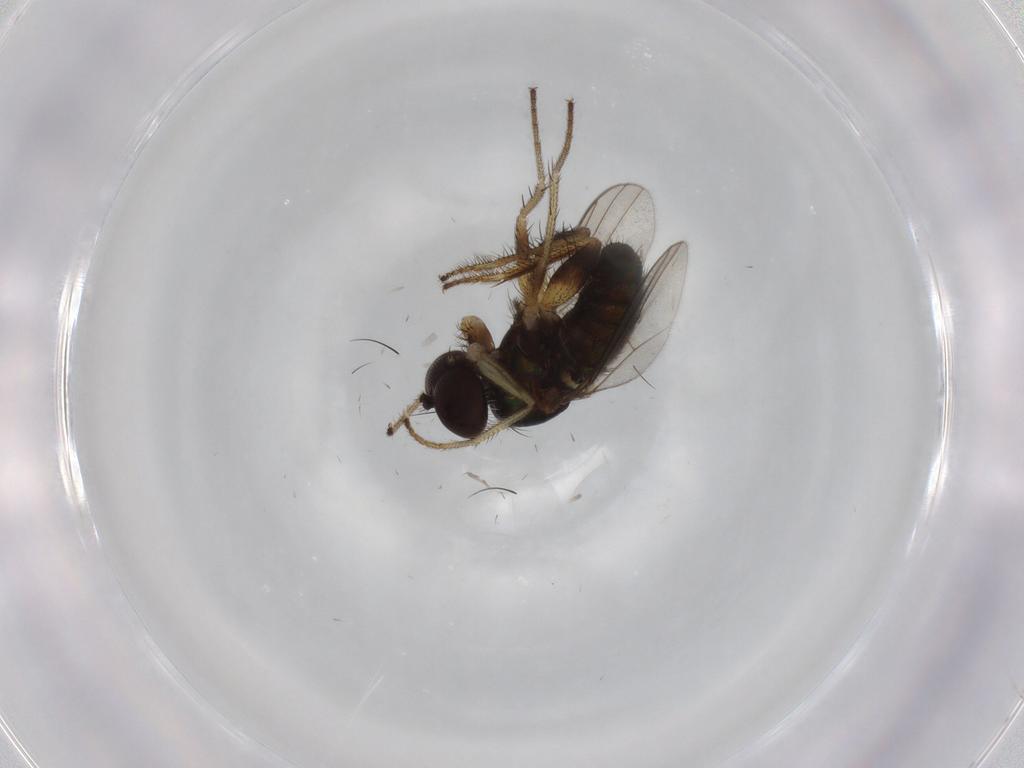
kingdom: Animalia
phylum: Arthropoda
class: Insecta
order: Diptera
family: Dolichopodidae
